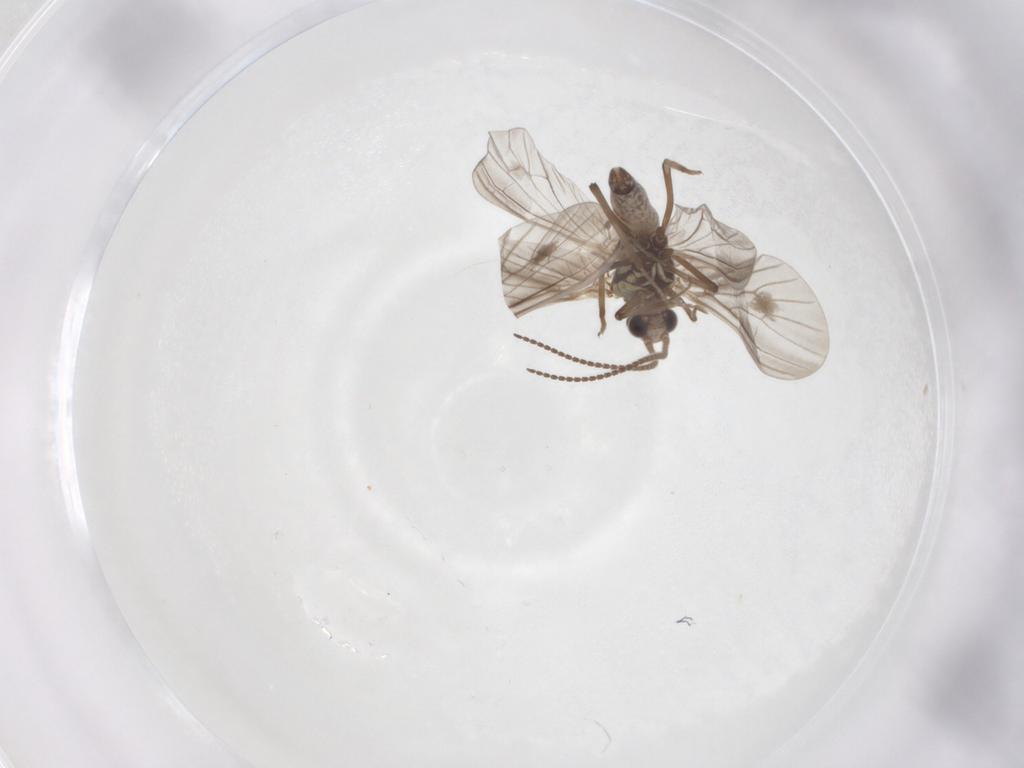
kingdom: Animalia
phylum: Arthropoda
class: Insecta
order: Neuroptera
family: Coniopterygidae
